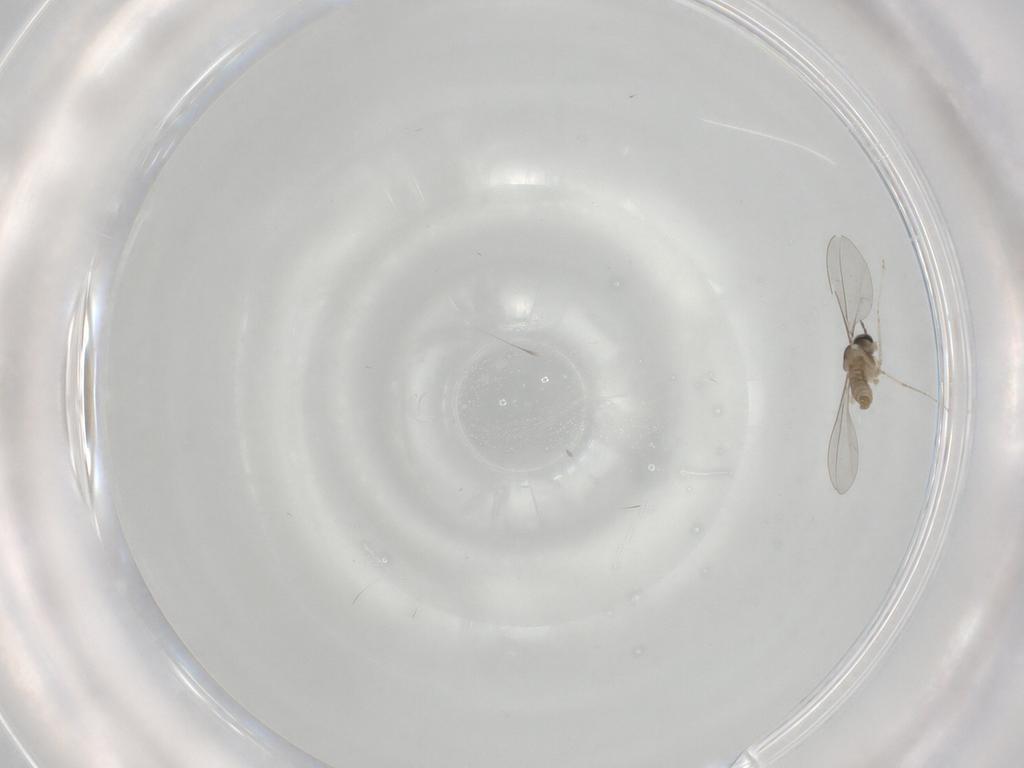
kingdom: Animalia
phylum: Arthropoda
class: Insecta
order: Diptera
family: Cecidomyiidae
